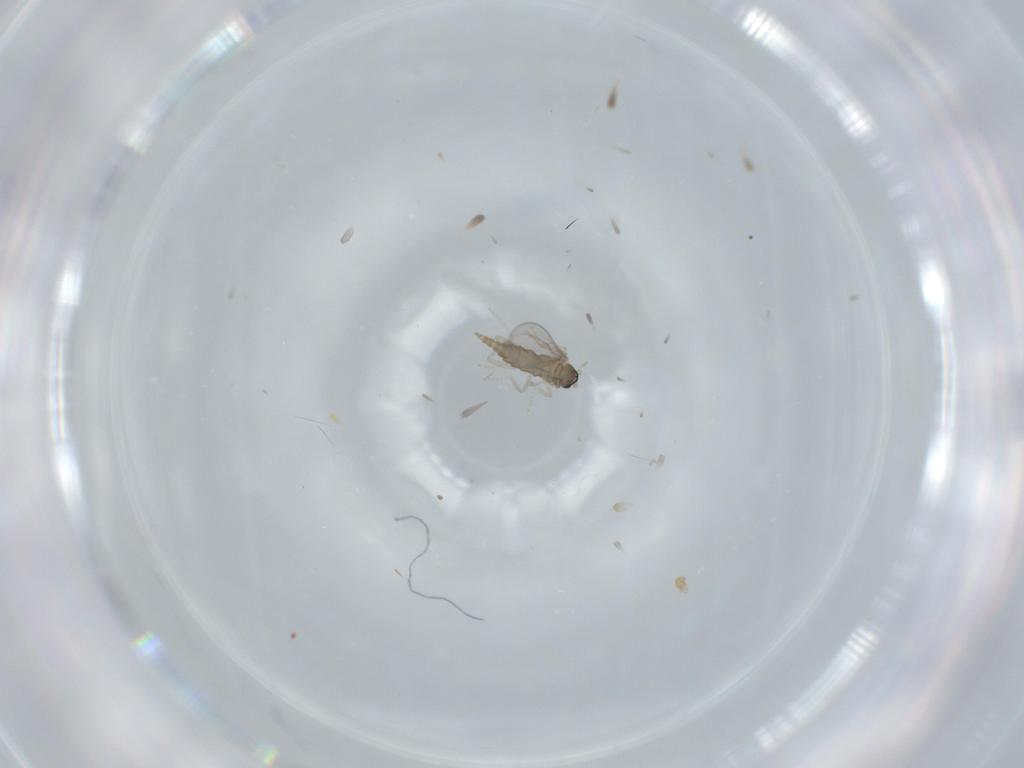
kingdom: Animalia
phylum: Arthropoda
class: Insecta
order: Diptera
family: Cecidomyiidae
